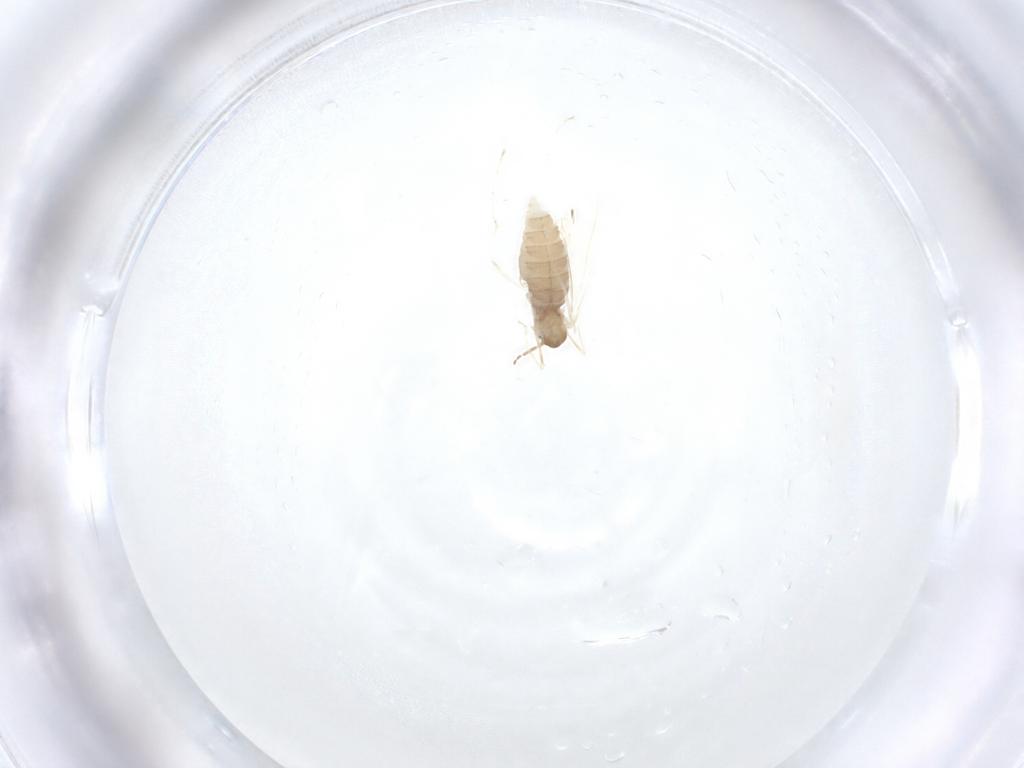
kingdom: Animalia
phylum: Arthropoda
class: Insecta
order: Diptera
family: Cecidomyiidae
